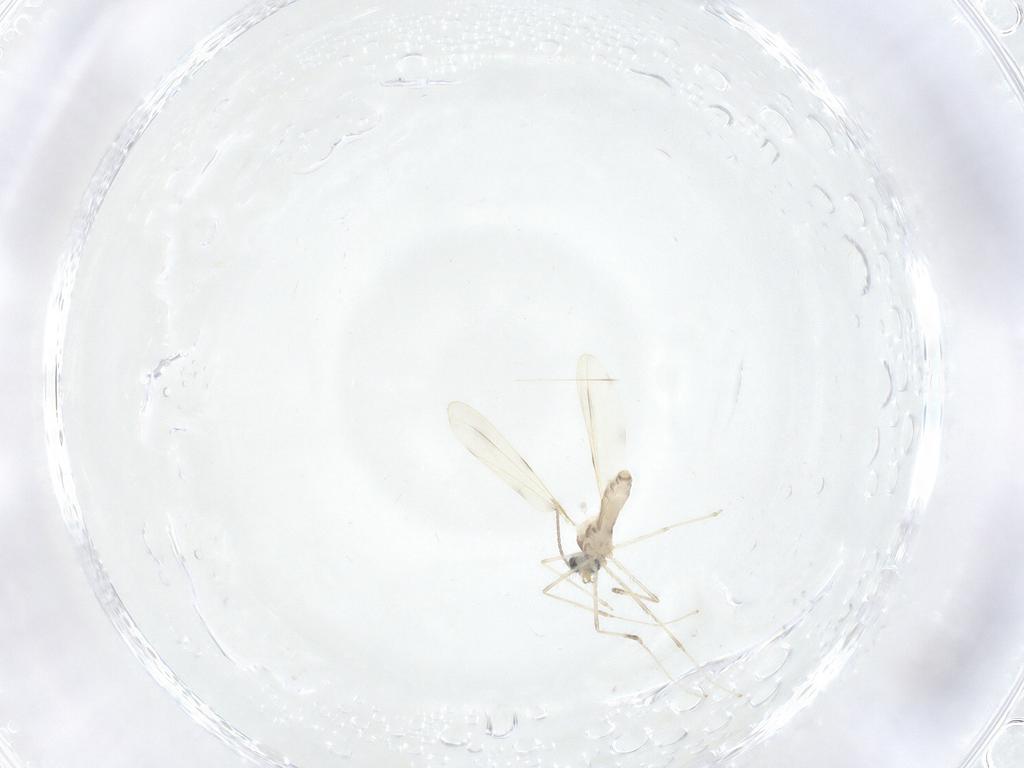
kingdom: Animalia
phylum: Arthropoda
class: Insecta
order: Diptera
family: Cecidomyiidae
